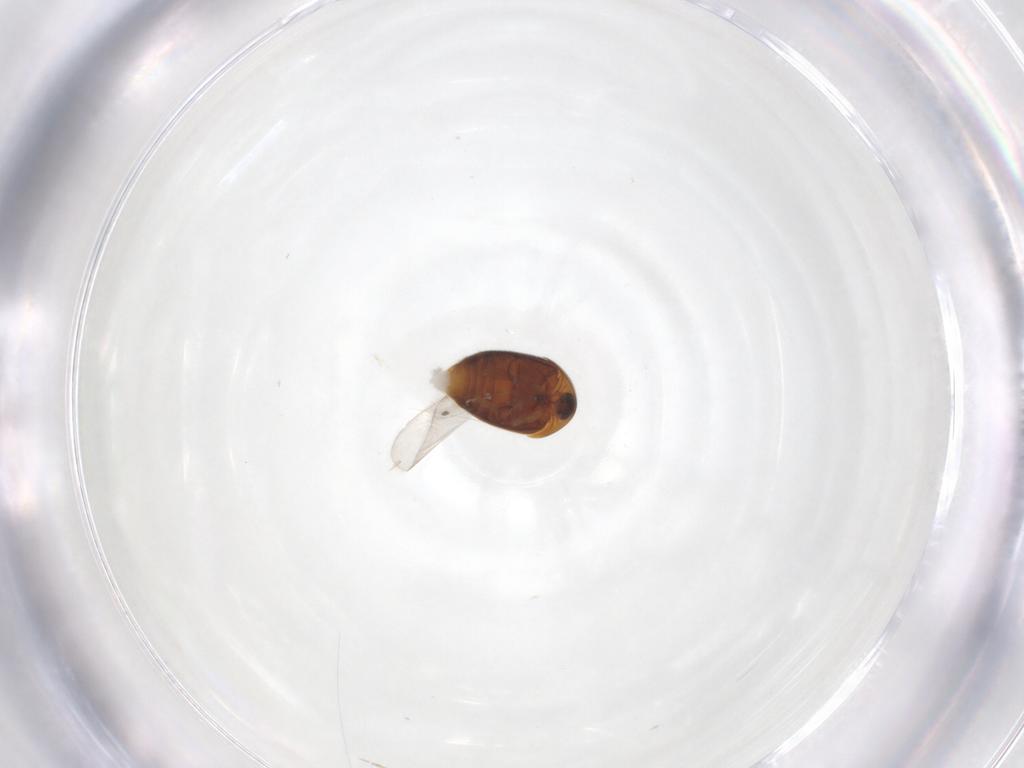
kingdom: Animalia
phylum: Arthropoda
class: Insecta
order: Coleoptera
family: Corylophidae
